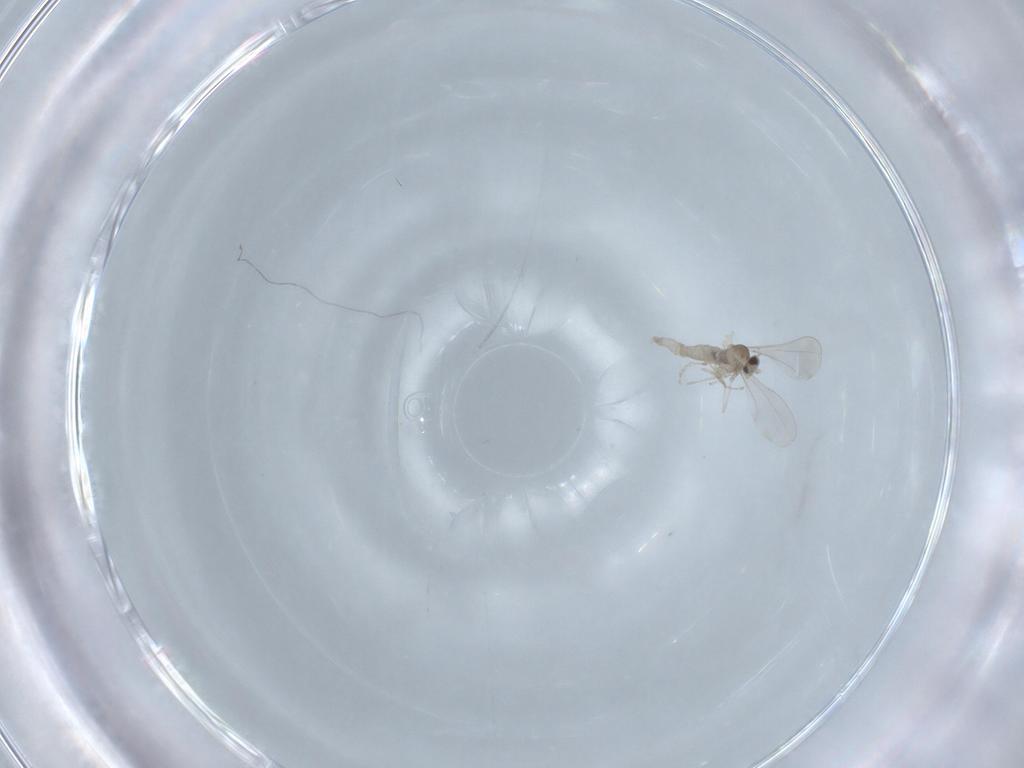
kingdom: Animalia
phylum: Arthropoda
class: Insecta
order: Diptera
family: Cecidomyiidae
